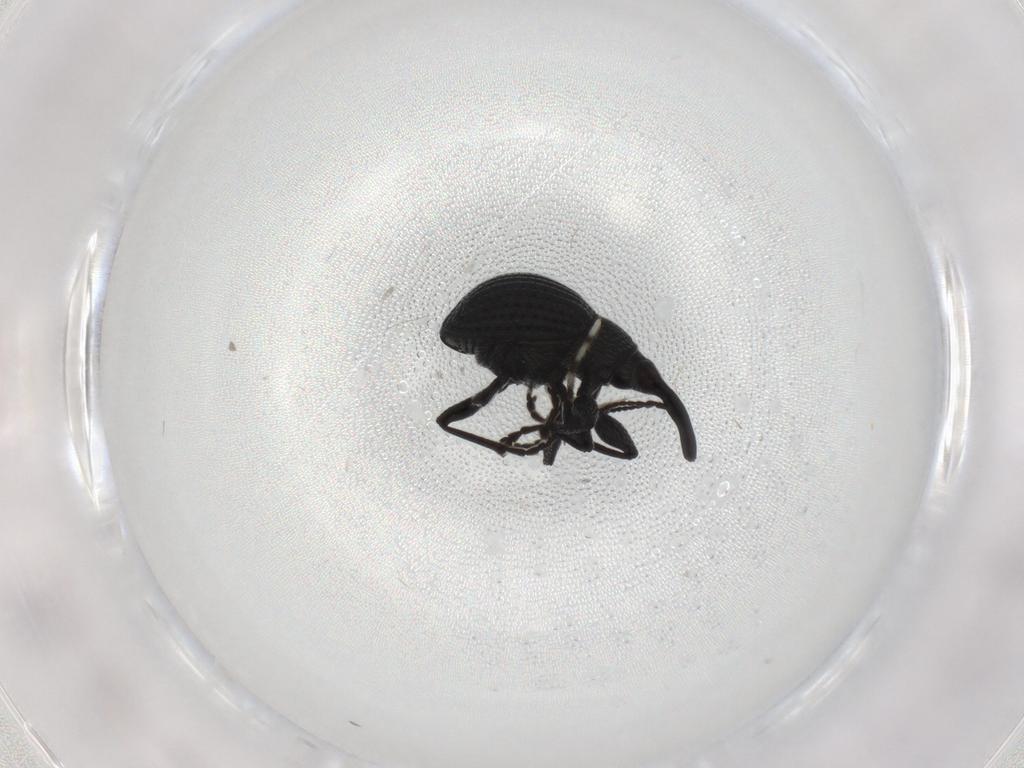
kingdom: Animalia
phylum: Arthropoda
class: Insecta
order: Coleoptera
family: Brentidae
